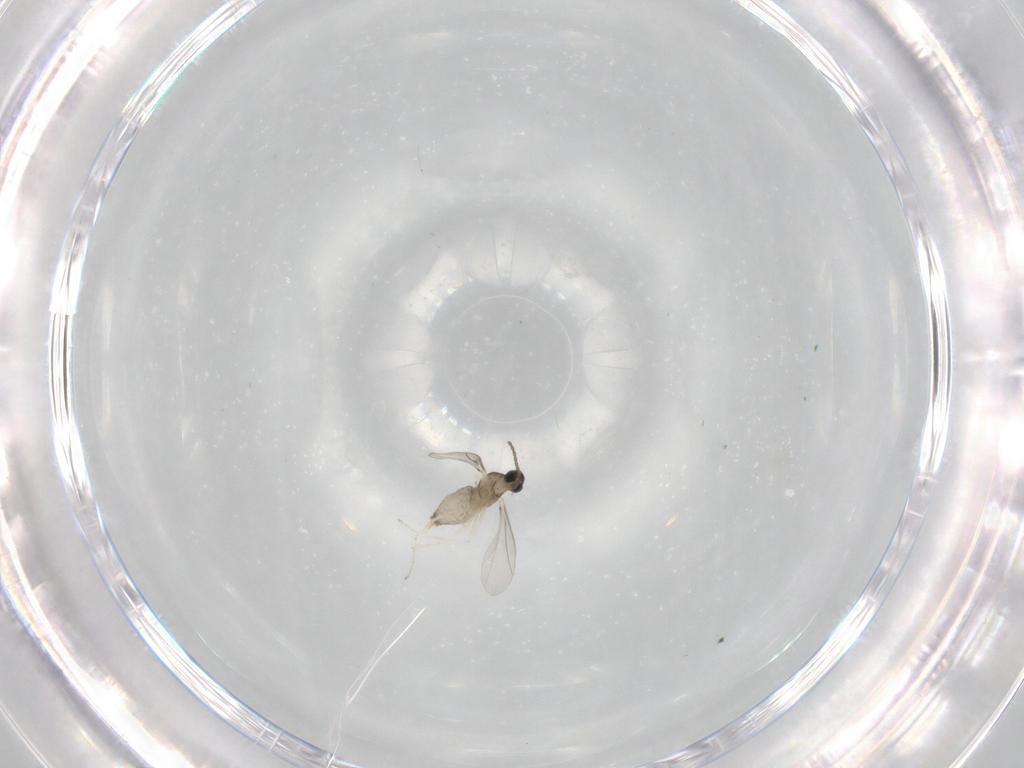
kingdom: Animalia
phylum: Arthropoda
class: Insecta
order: Diptera
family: Cecidomyiidae
